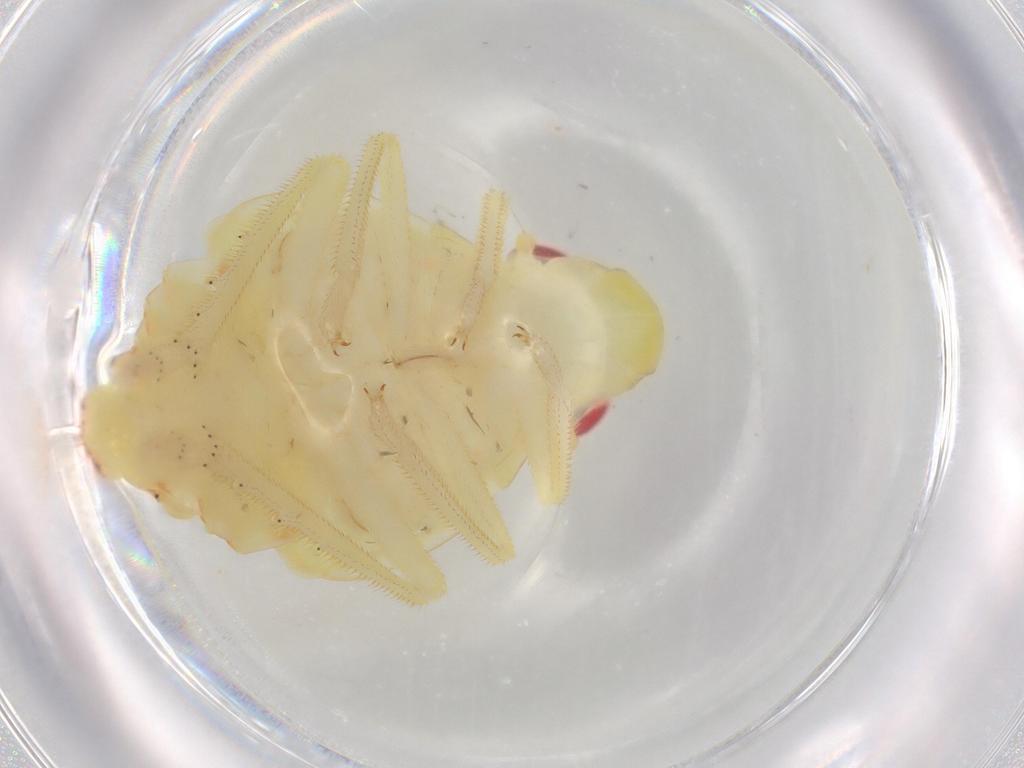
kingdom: Animalia
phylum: Arthropoda
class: Insecta
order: Hemiptera
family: Tropiduchidae
